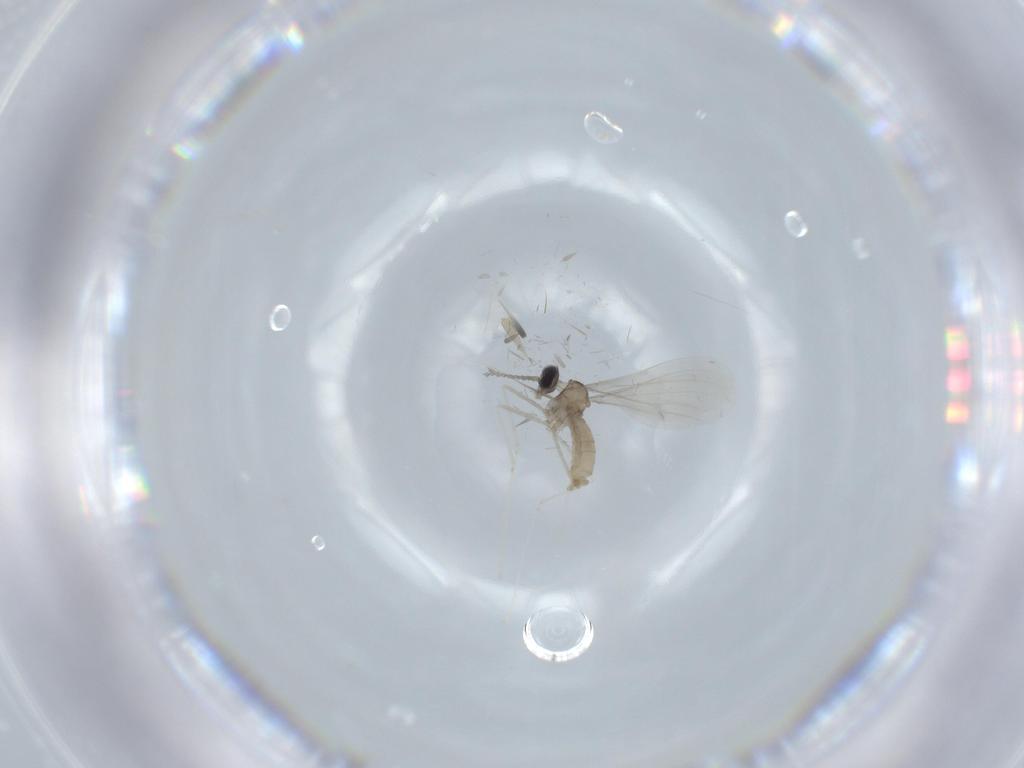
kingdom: Animalia
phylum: Arthropoda
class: Insecta
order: Diptera
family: Cecidomyiidae
